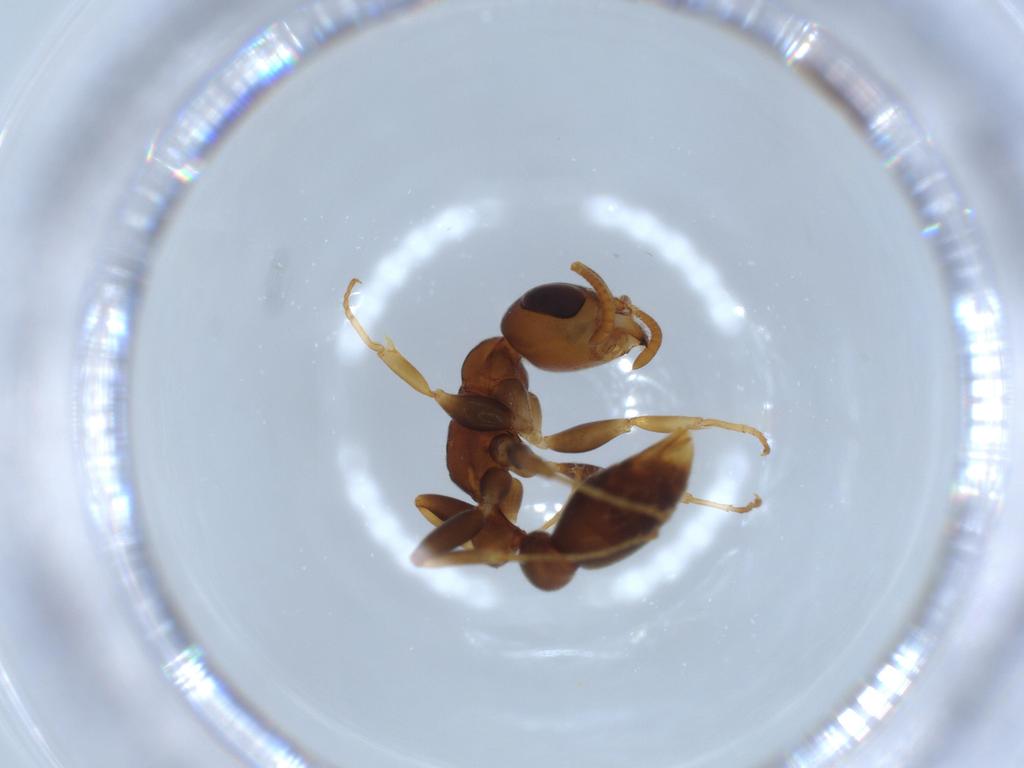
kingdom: Animalia
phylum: Arthropoda
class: Insecta
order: Hymenoptera
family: Formicidae
